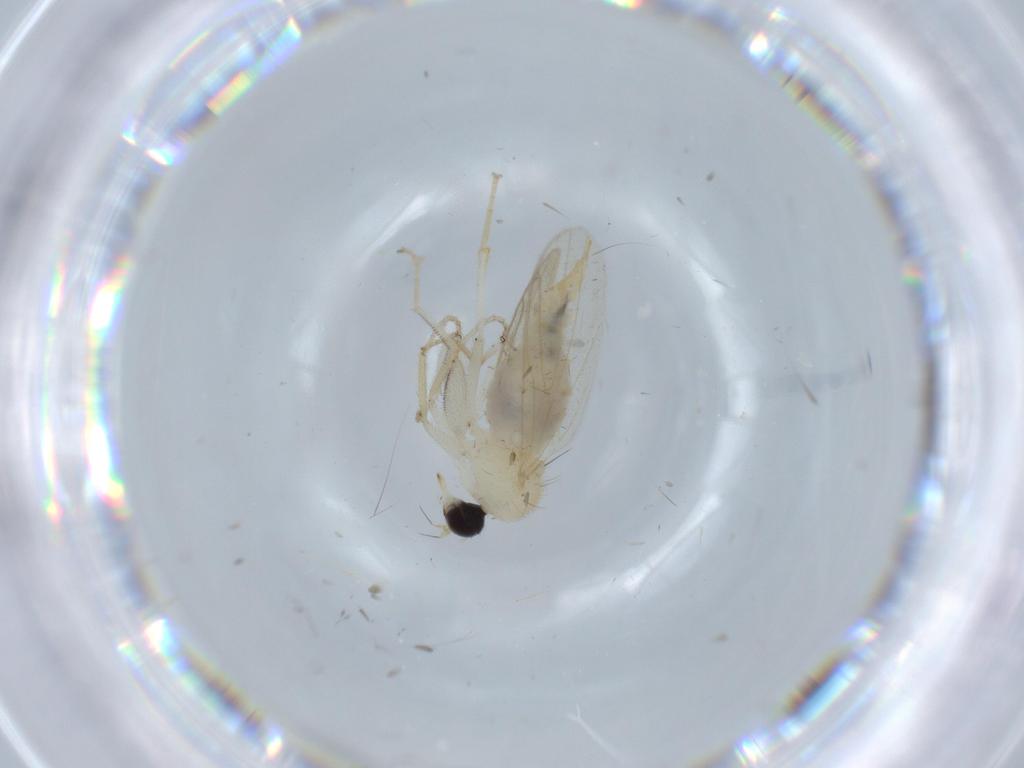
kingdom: Animalia
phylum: Arthropoda
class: Insecta
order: Diptera
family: Hybotidae
